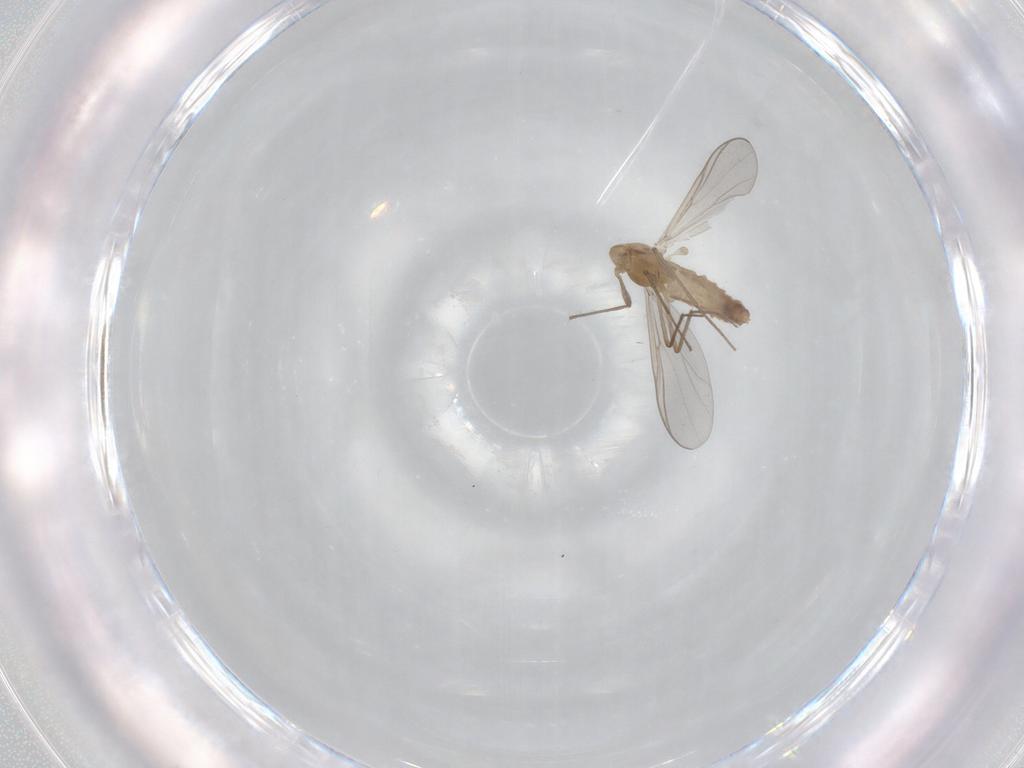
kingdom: Animalia
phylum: Arthropoda
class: Insecta
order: Diptera
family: Chironomidae
